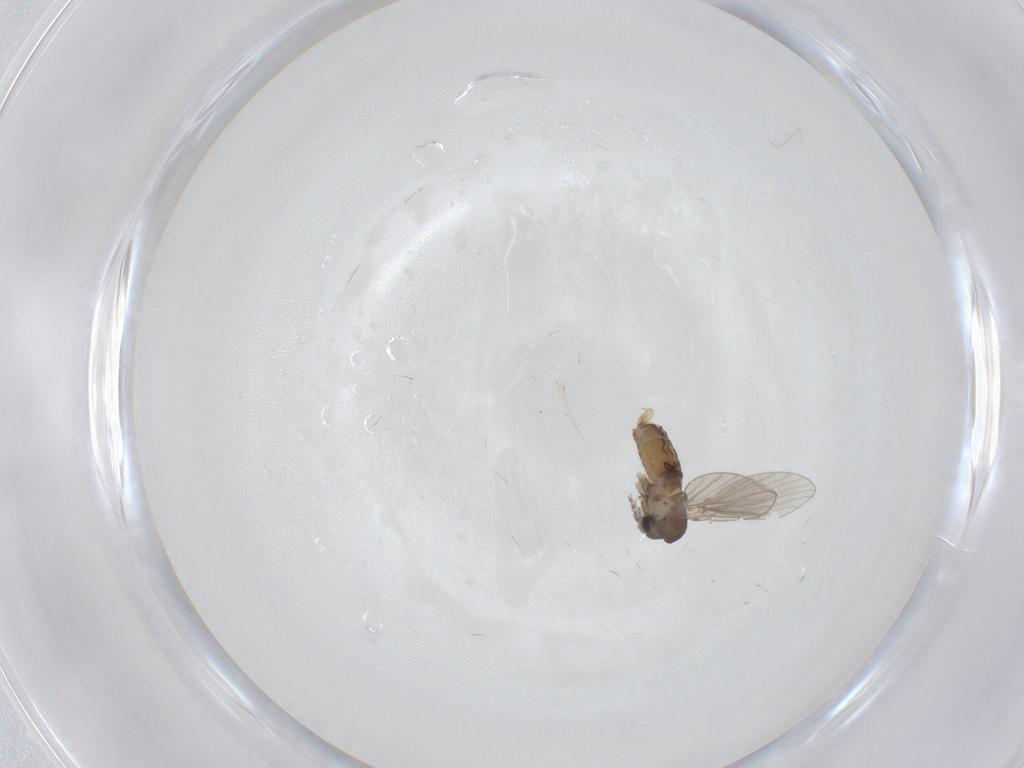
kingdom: Animalia
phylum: Arthropoda
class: Insecta
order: Diptera
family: Psychodidae
